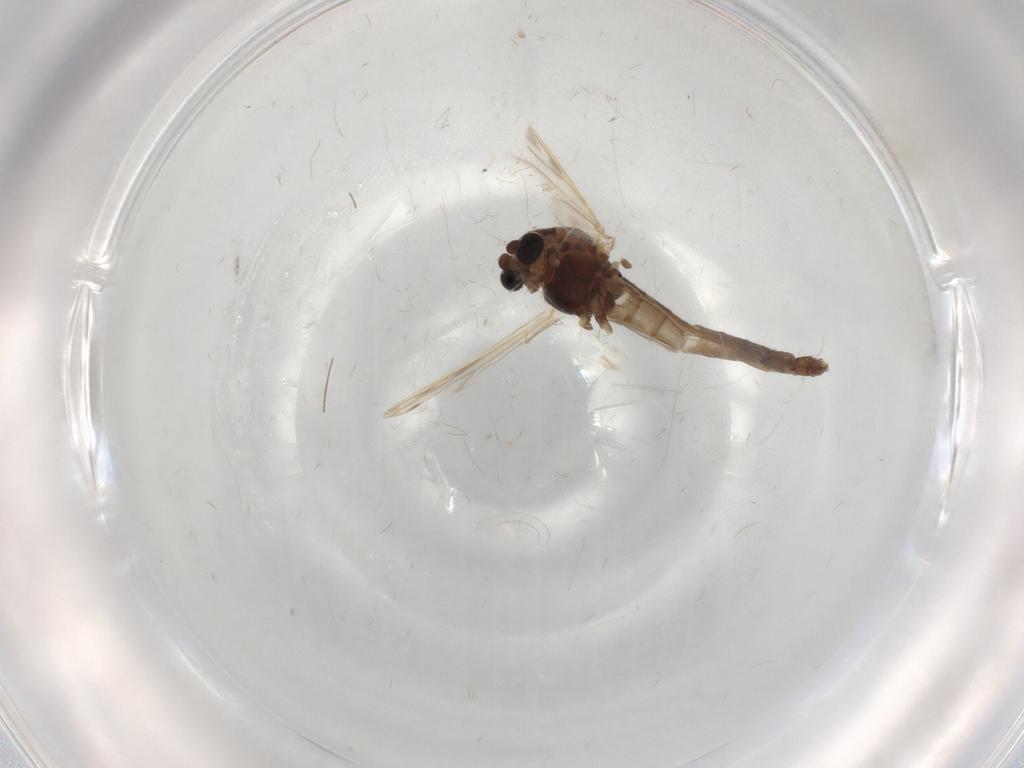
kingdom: Animalia
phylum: Arthropoda
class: Insecta
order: Diptera
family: Chironomidae
